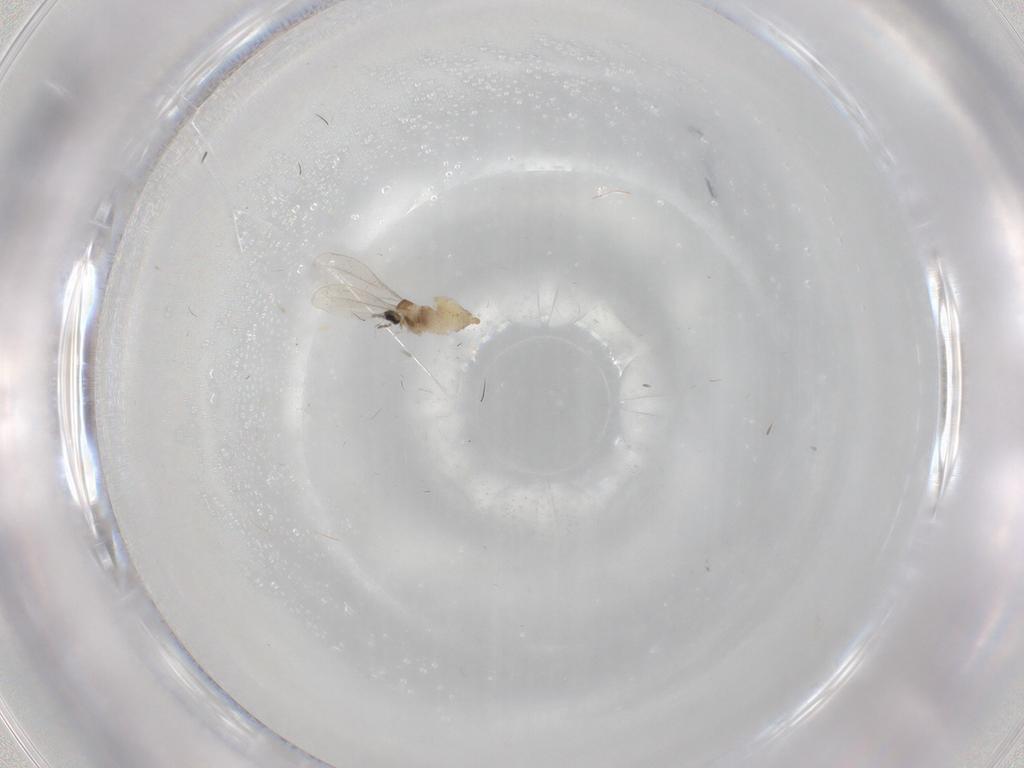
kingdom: Animalia
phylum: Arthropoda
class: Insecta
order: Diptera
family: Cecidomyiidae
